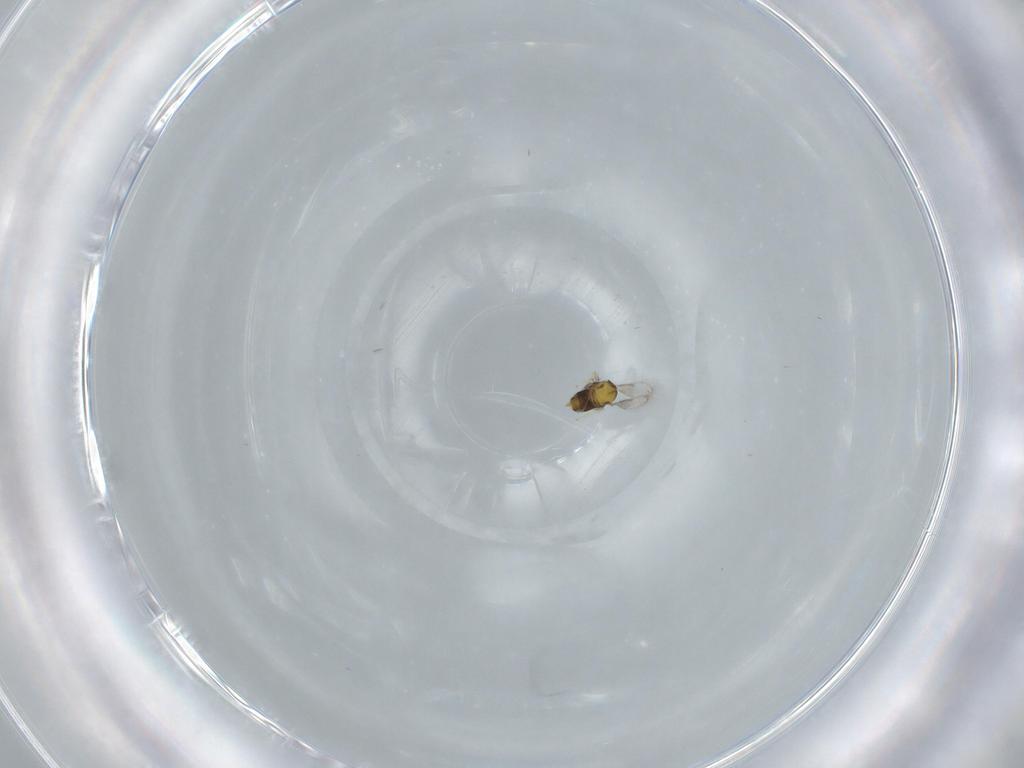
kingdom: Animalia
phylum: Arthropoda
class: Insecta
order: Hymenoptera
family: Aphelinidae
